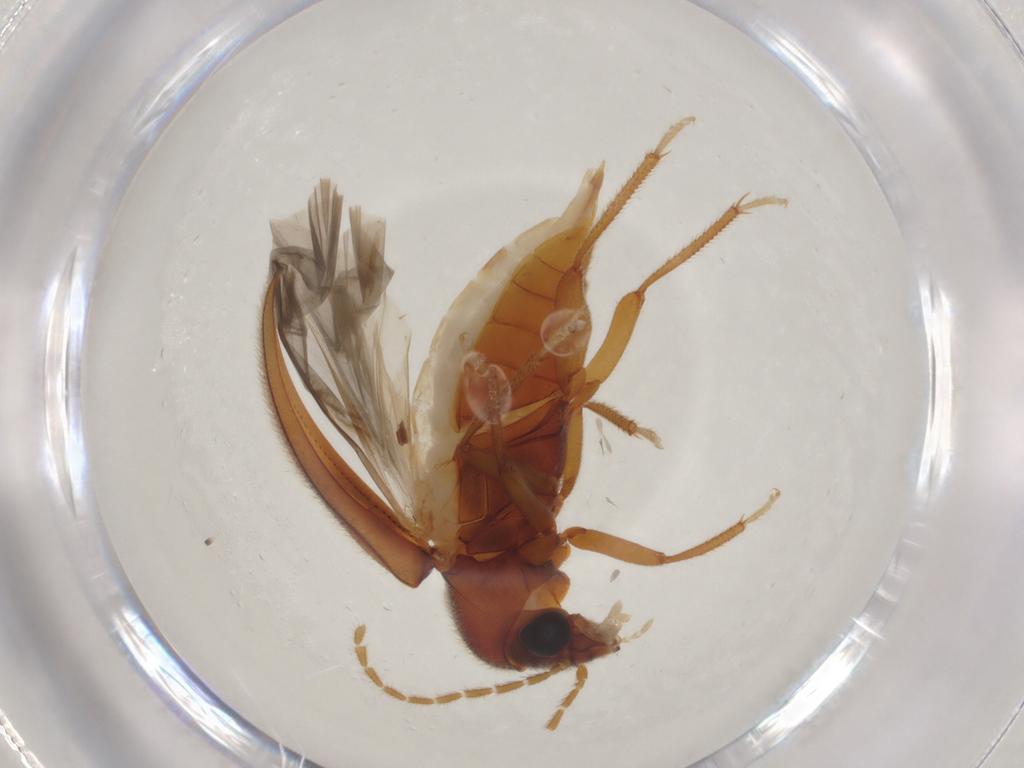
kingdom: Animalia
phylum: Arthropoda
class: Insecta
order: Coleoptera
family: Ptilodactylidae
